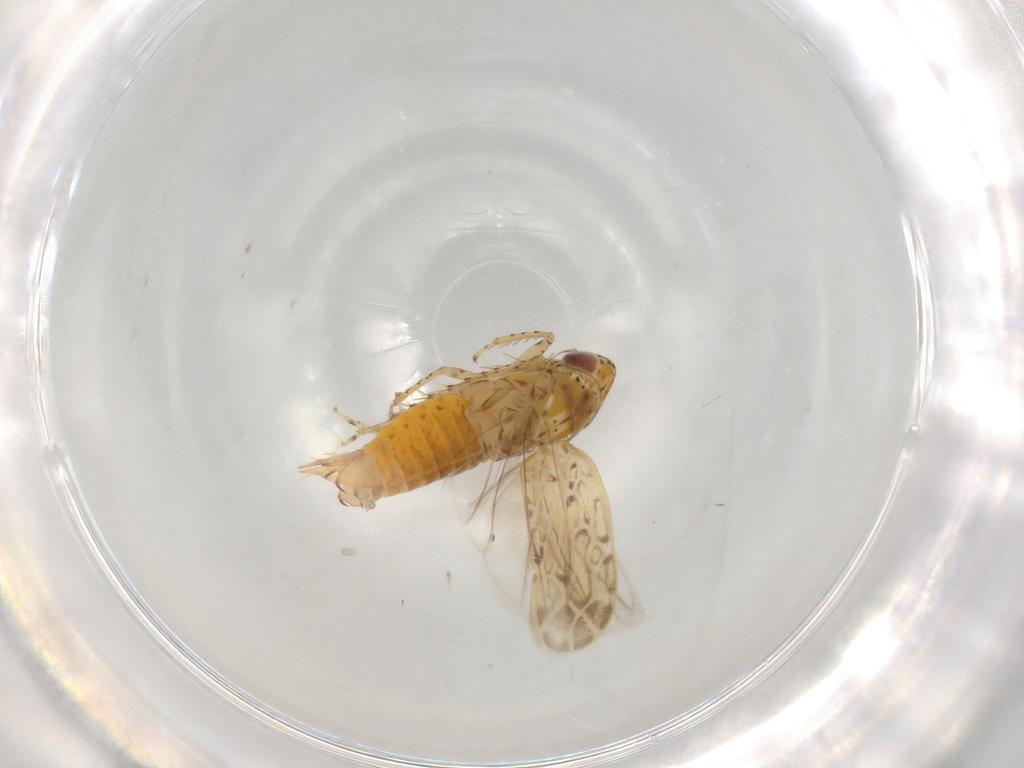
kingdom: Animalia
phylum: Arthropoda
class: Insecta
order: Hemiptera
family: Cicadellidae
